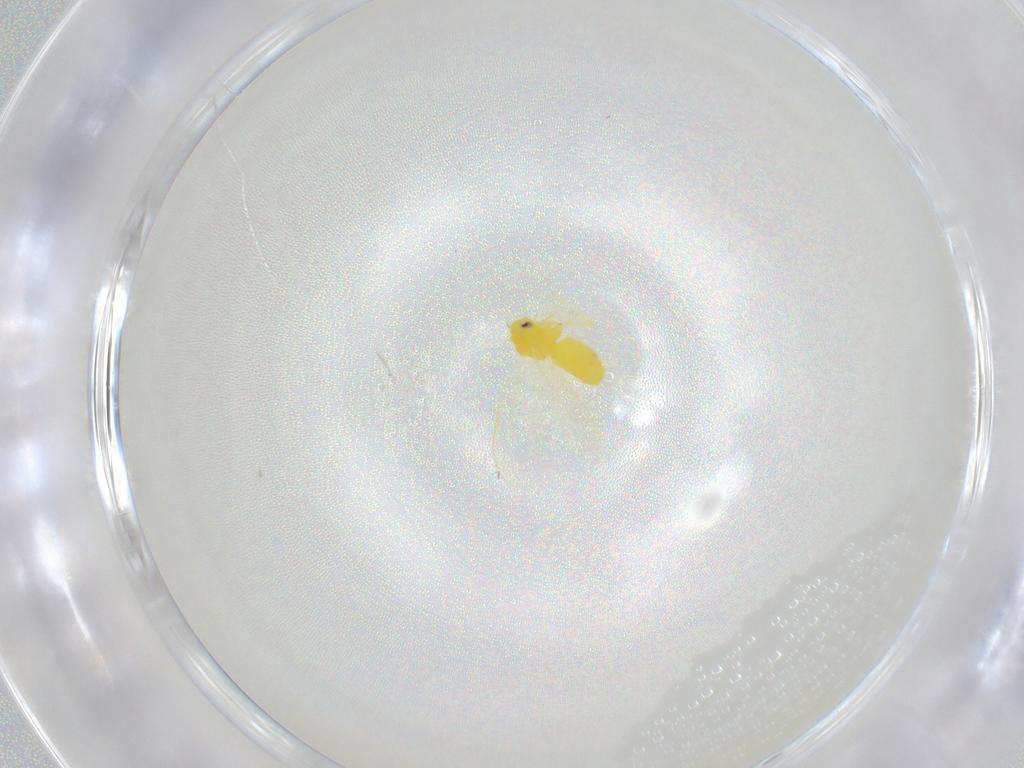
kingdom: Animalia
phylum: Arthropoda
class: Insecta
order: Hemiptera
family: Aleyrodidae
